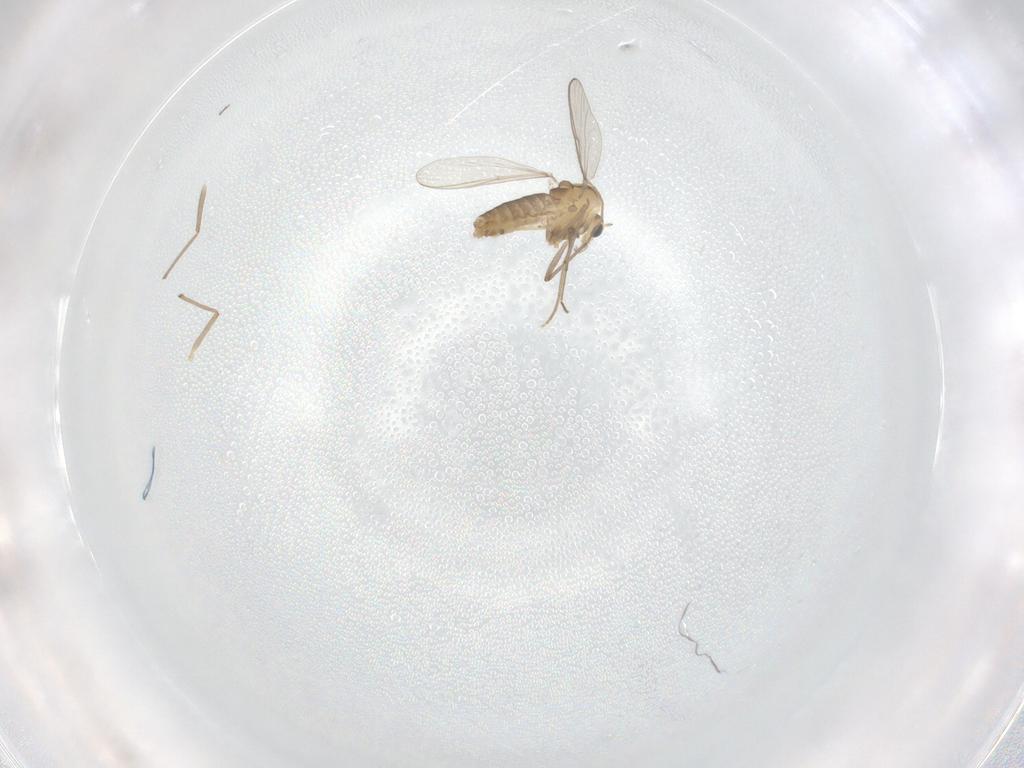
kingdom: Animalia
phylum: Arthropoda
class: Insecta
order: Diptera
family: Chironomidae
